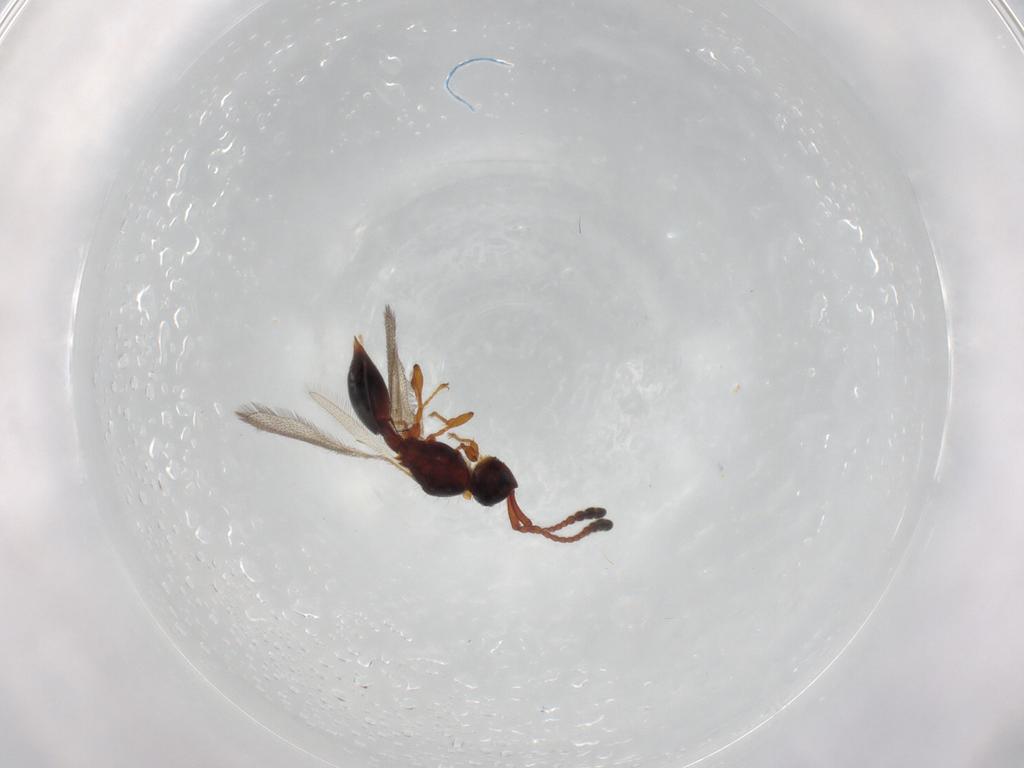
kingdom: Animalia
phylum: Arthropoda
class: Insecta
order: Hymenoptera
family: Diapriidae
